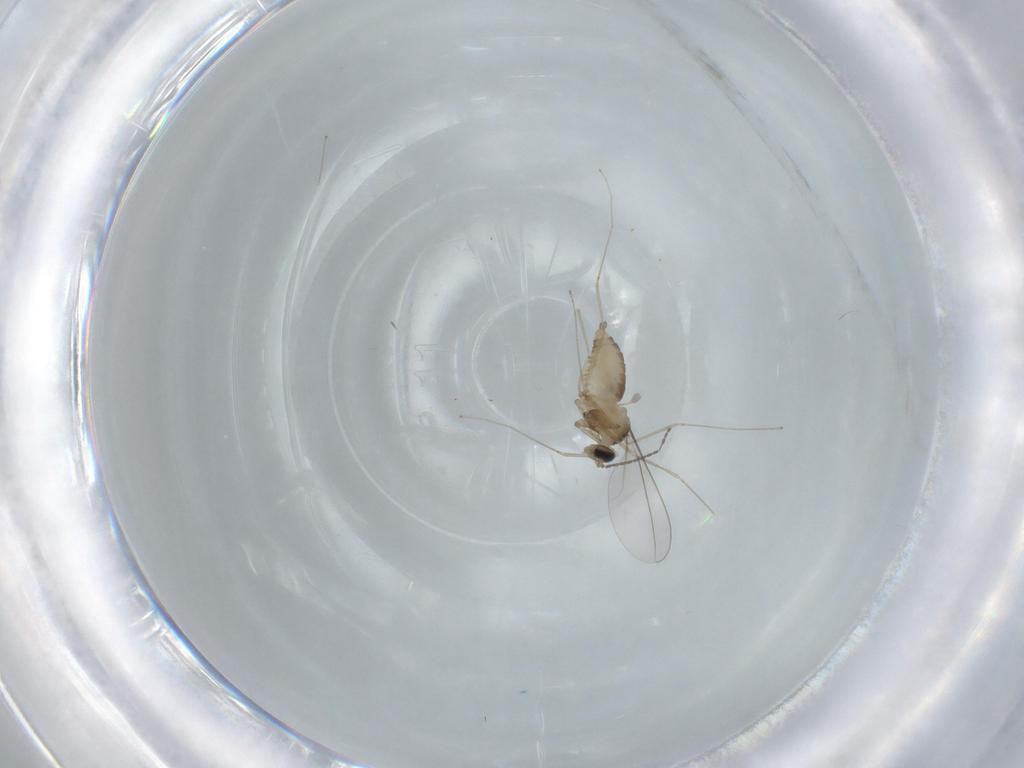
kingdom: Animalia
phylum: Arthropoda
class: Insecta
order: Diptera
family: Cecidomyiidae
